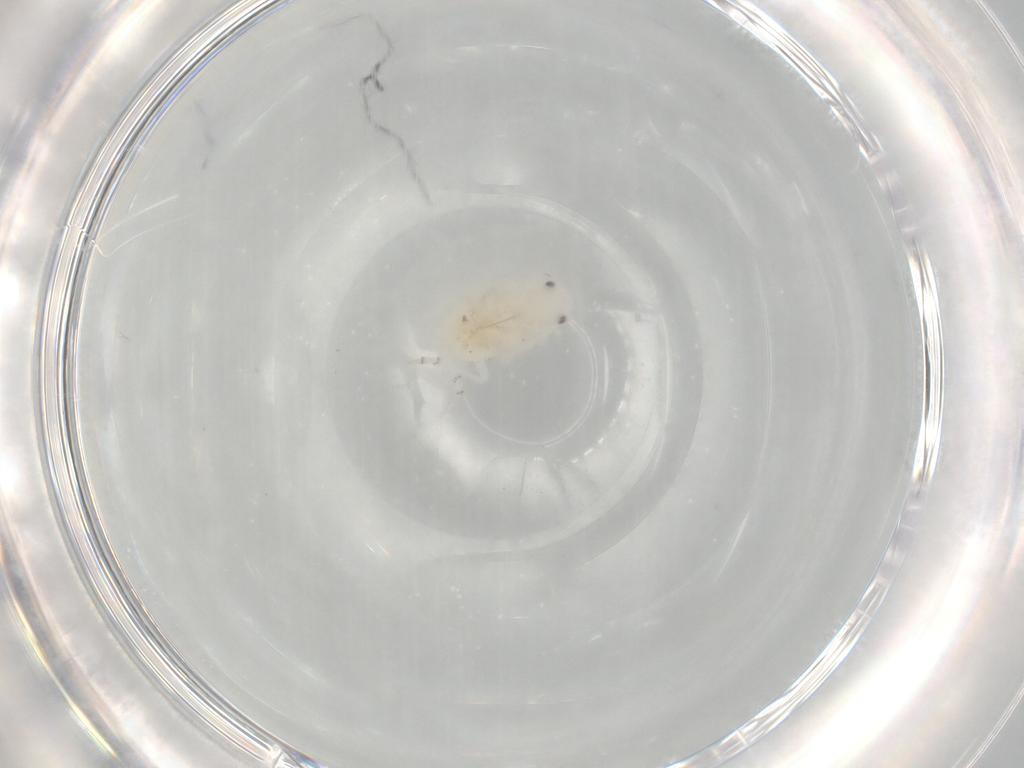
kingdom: Animalia
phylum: Arthropoda
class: Insecta
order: Hemiptera
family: Flatidae
